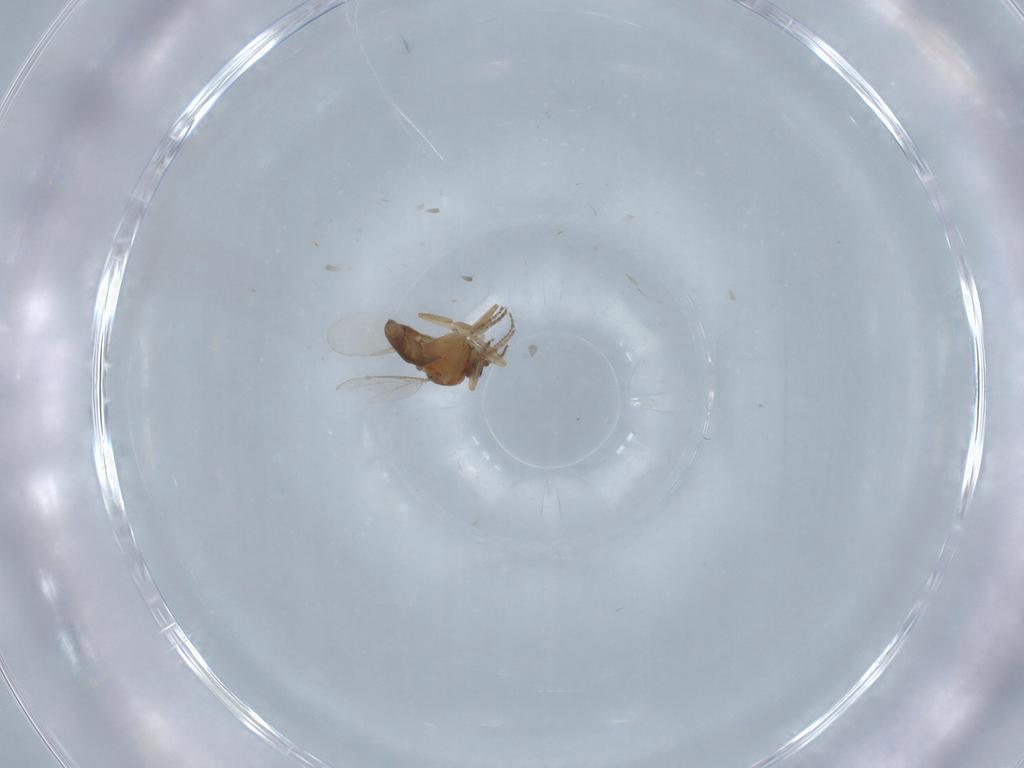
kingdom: Animalia
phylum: Arthropoda
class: Insecta
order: Diptera
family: Ceratopogonidae
